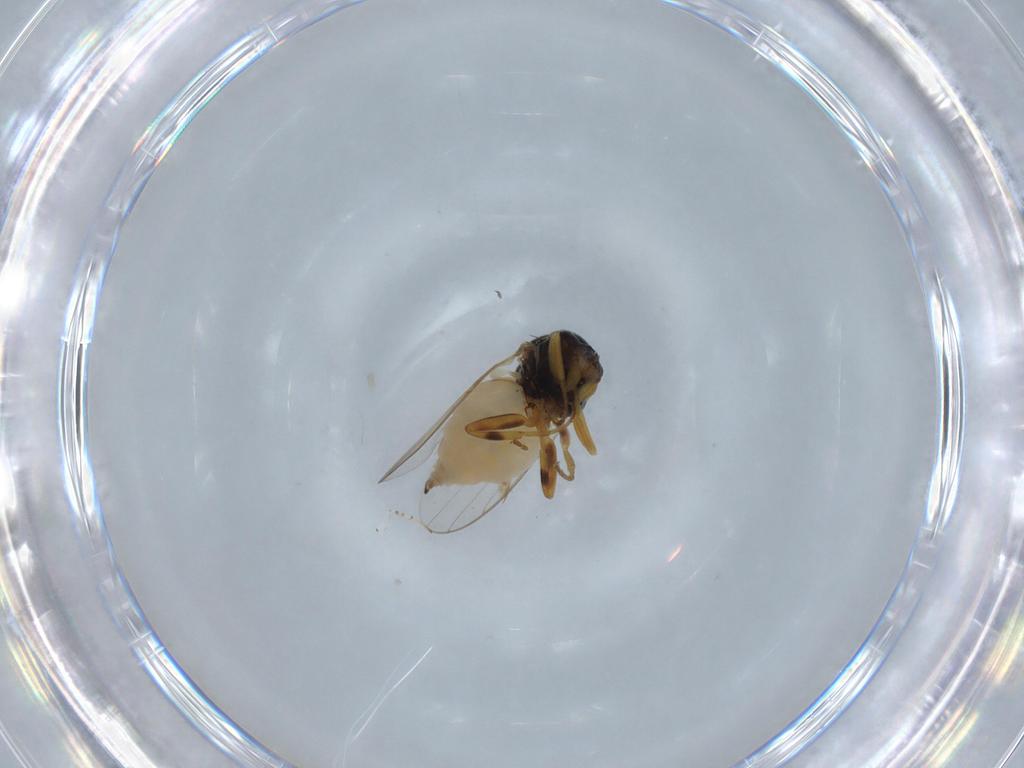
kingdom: Animalia
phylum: Arthropoda
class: Insecta
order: Diptera
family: Chloropidae
